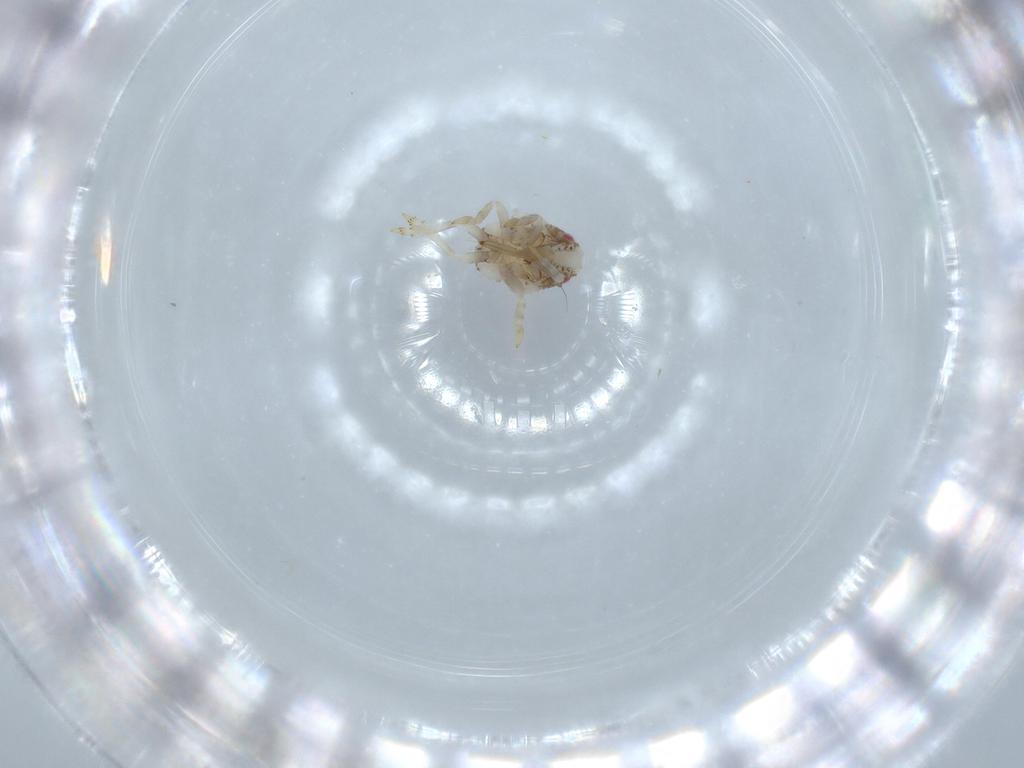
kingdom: Animalia
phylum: Arthropoda
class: Insecta
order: Hemiptera
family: Acanaloniidae
